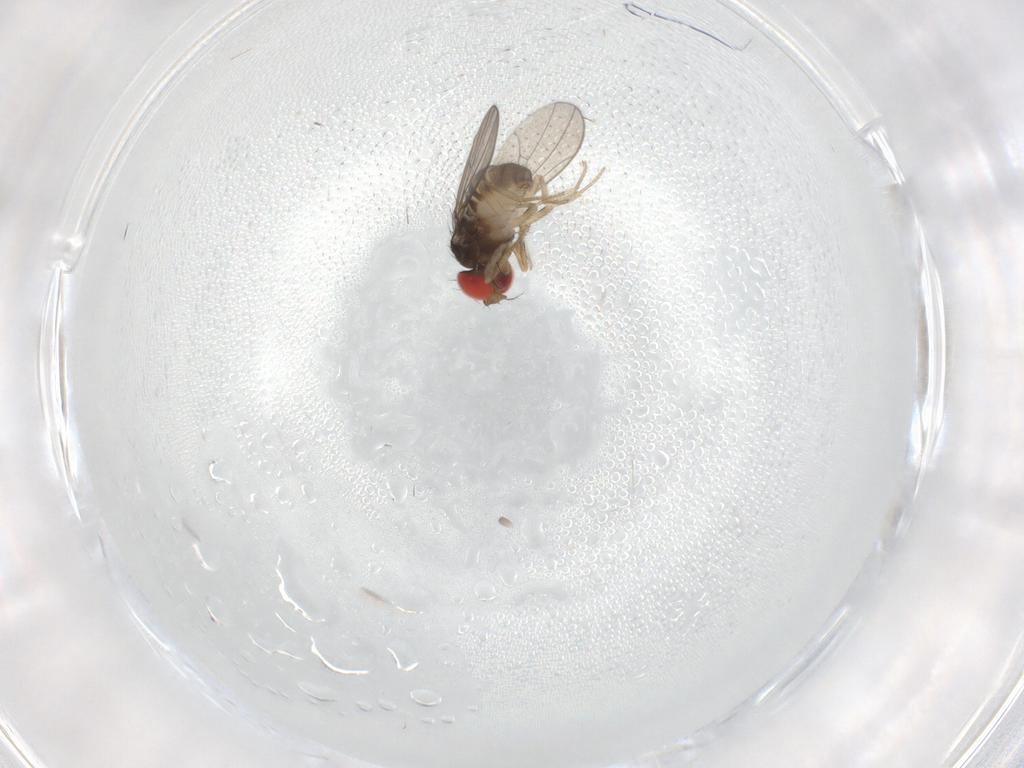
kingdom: Animalia
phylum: Arthropoda
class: Insecta
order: Diptera
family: Drosophilidae
